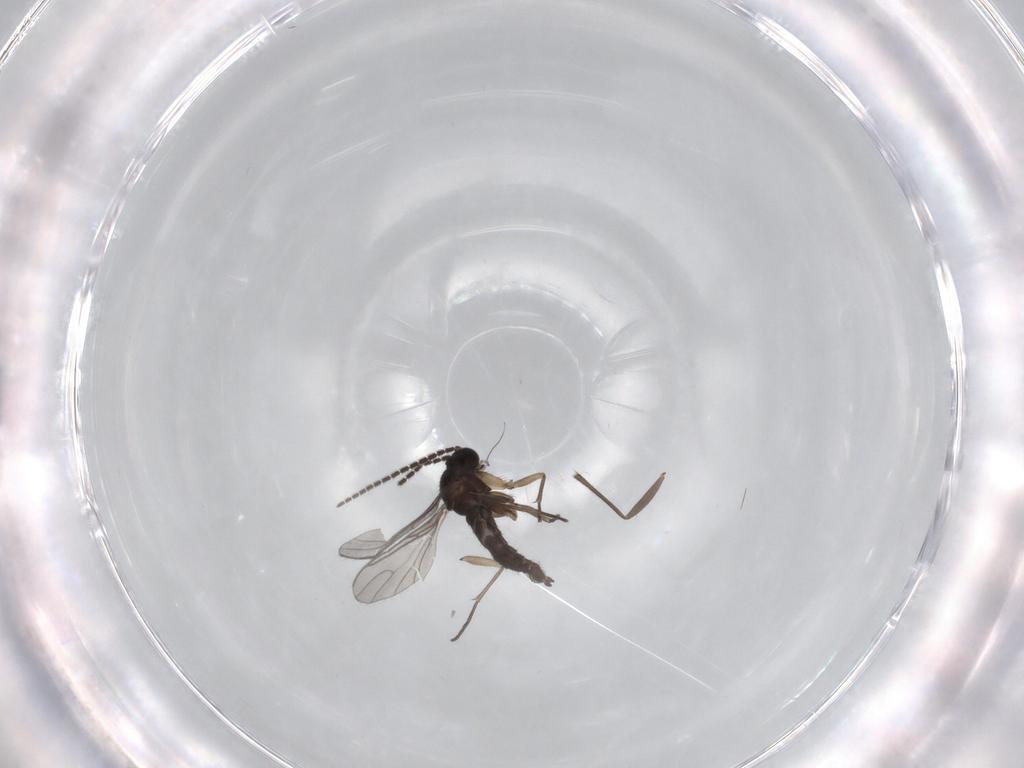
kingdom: Animalia
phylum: Arthropoda
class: Insecta
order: Diptera
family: Sciaridae
